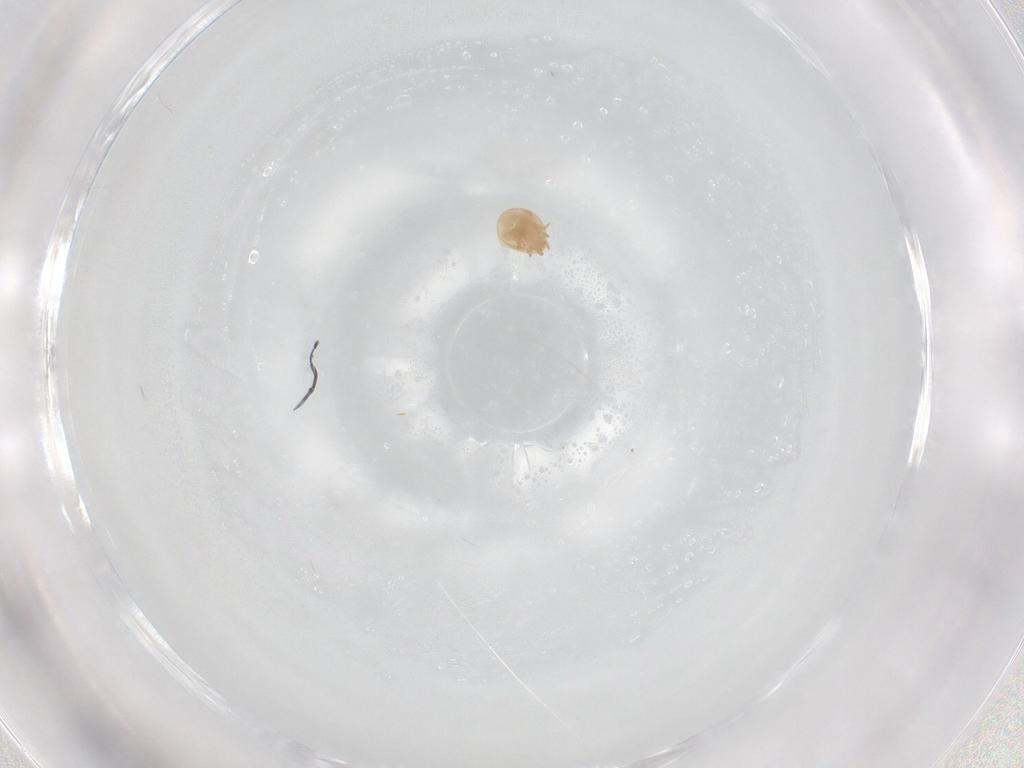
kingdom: Animalia
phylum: Arthropoda
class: Arachnida
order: Mesostigmata
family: Trematuridae
